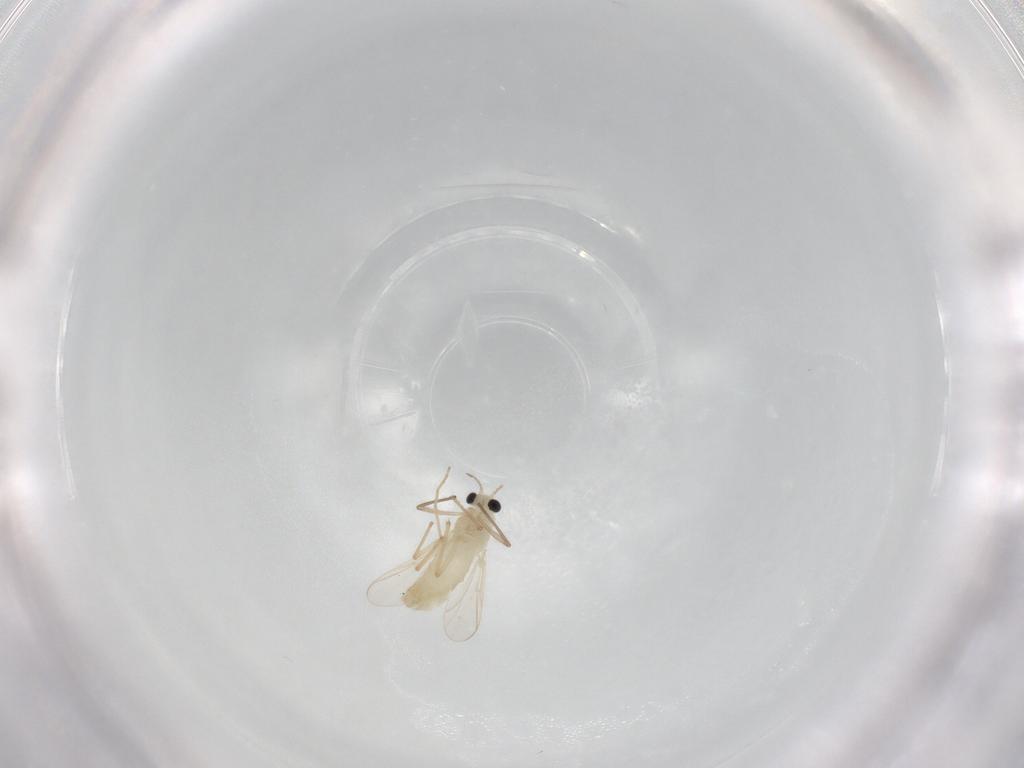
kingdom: Animalia
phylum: Arthropoda
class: Insecta
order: Diptera
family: Chironomidae
